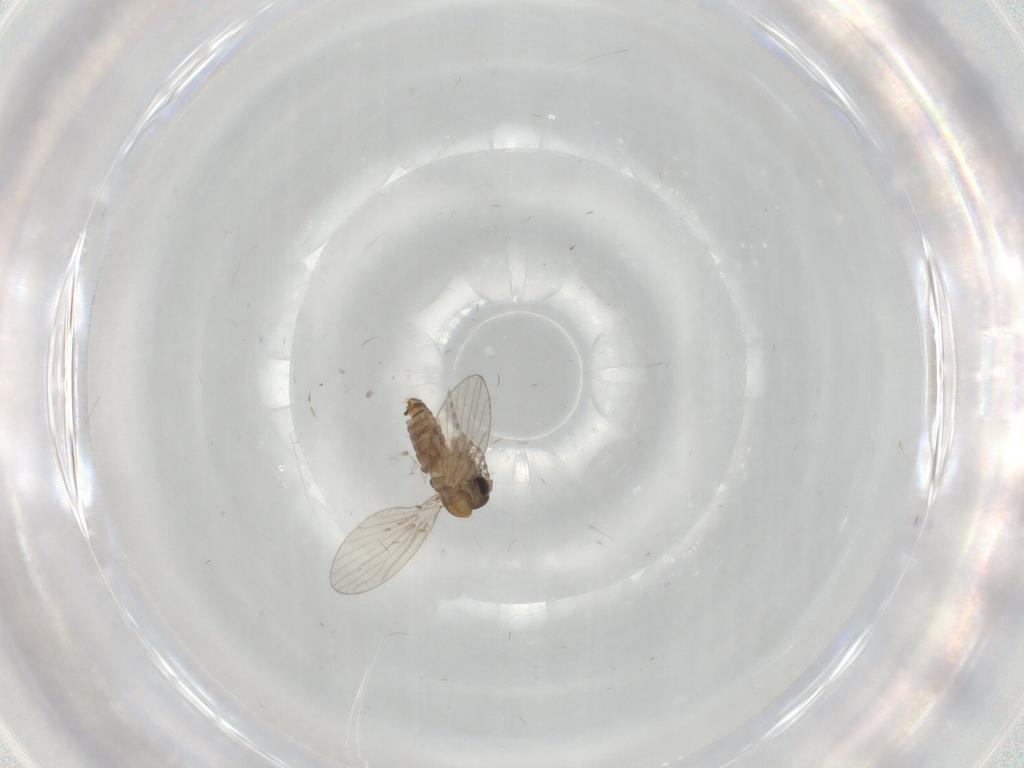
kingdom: Animalia
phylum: Arthropoda
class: Insecta
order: Diptera
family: Psychodidae
